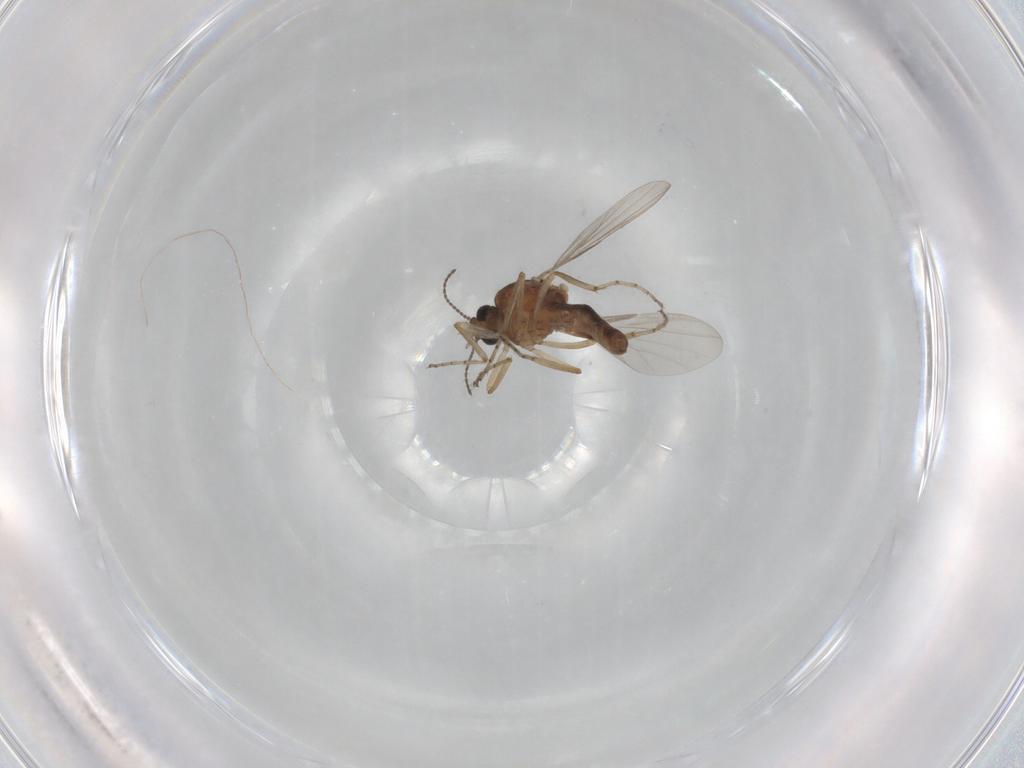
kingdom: Animalia
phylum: Arthropoda
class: Insecta
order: Diptera
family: Ceratopogonidae
